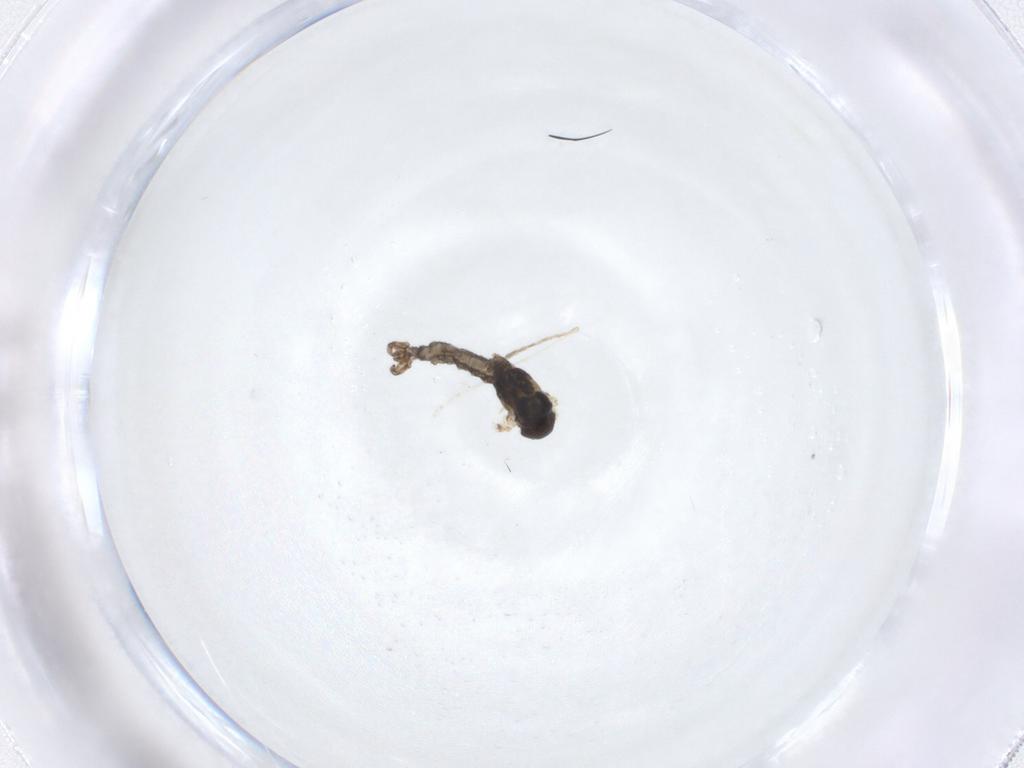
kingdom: Animalia
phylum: Arthropoda
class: Insecta
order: Diptera
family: Cecidomyiidae
